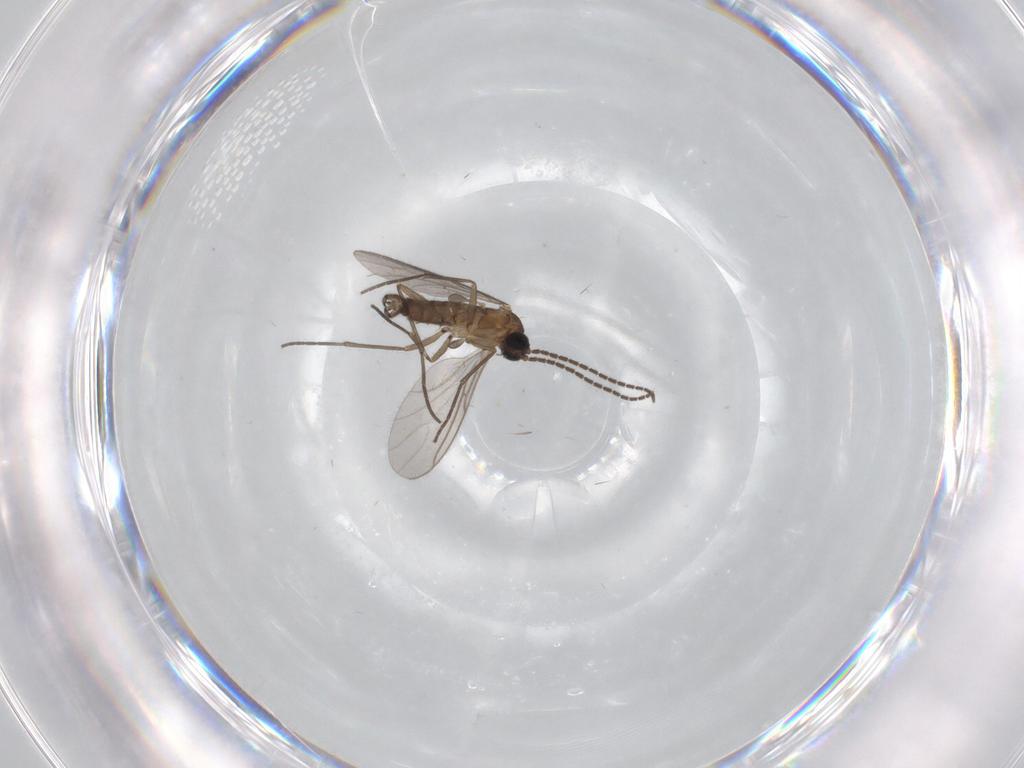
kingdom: Animalia
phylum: Arthropoda
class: Insecta
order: Diptera
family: Sciaridae
